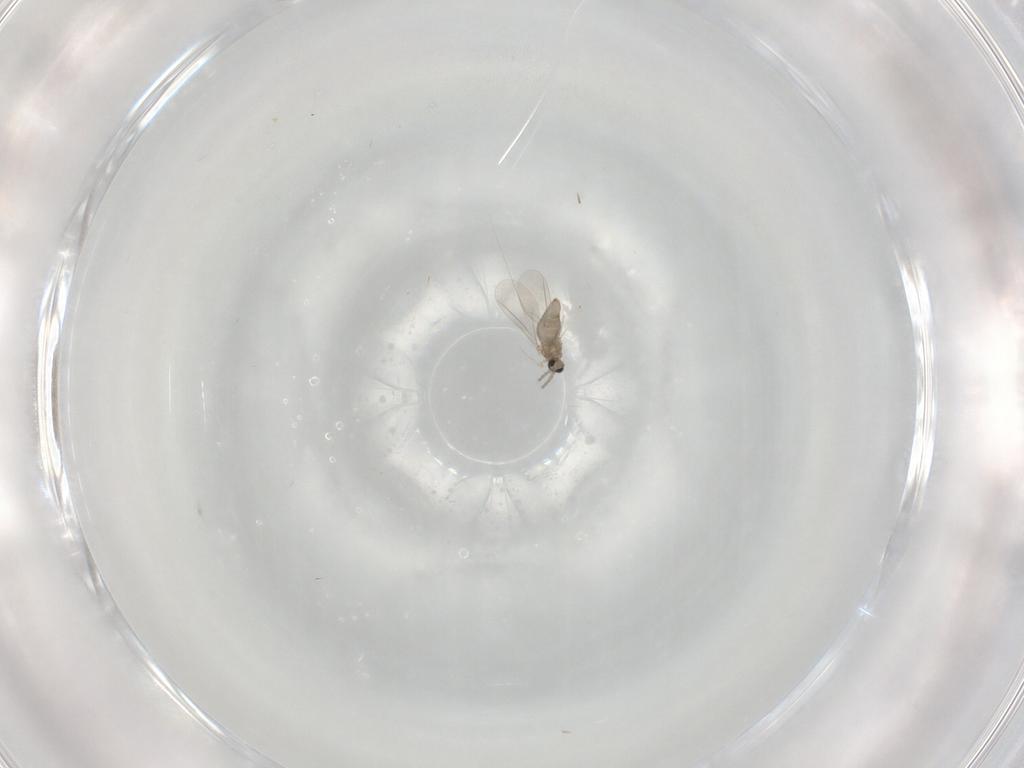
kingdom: Animalia
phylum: Arthropoda
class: Insecta
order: Diptera
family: Cecidomyiidae
